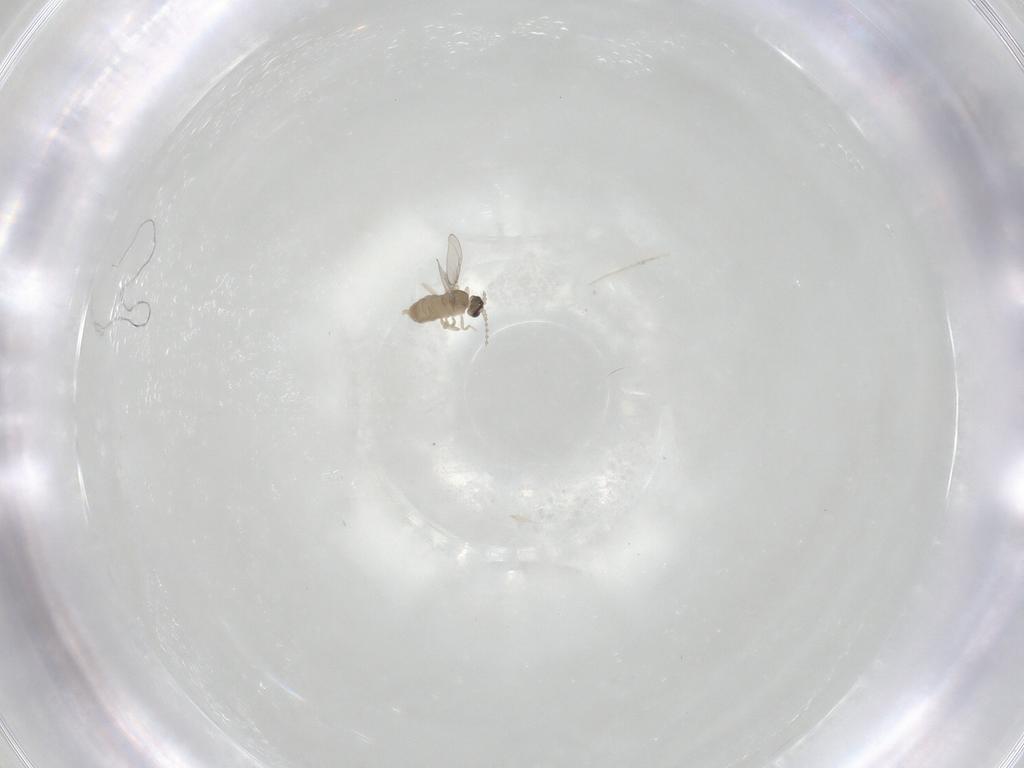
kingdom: Animalia
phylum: Arthropoda
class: Insecta
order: Diptera
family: Cecidomyiidae
